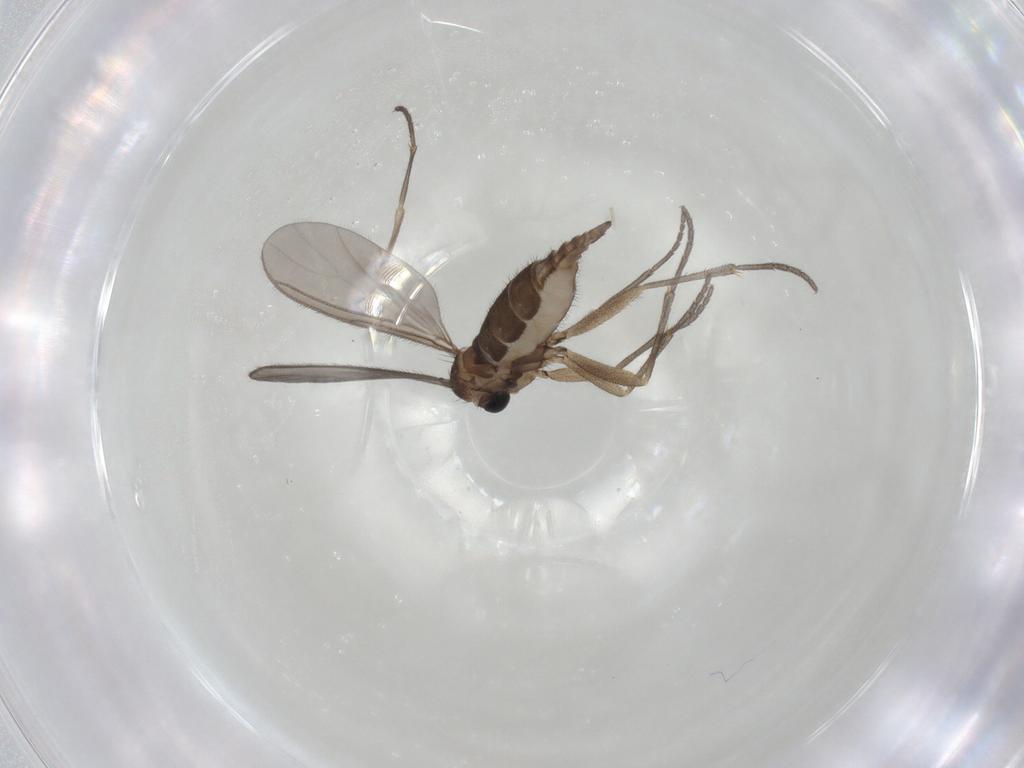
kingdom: Animalia
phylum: Arthropoda
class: Insecta
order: Diptera
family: Sciaridae
